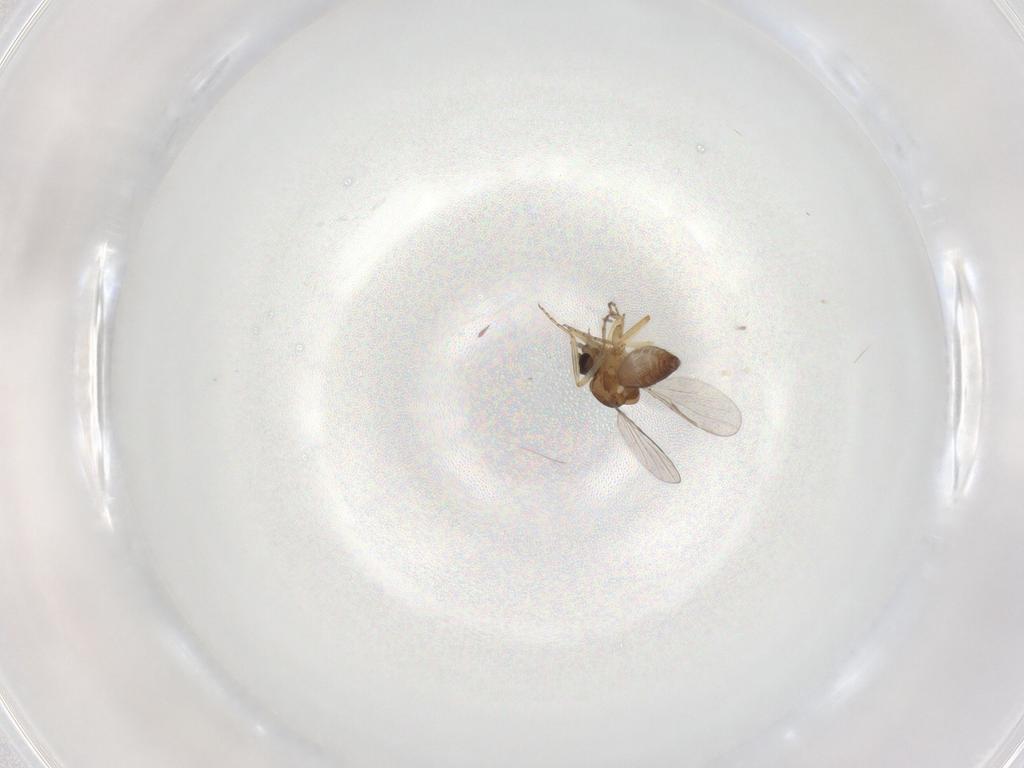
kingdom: Animalia
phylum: Arthropoda
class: Insecta
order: Diptera
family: Ceratopogonidae
